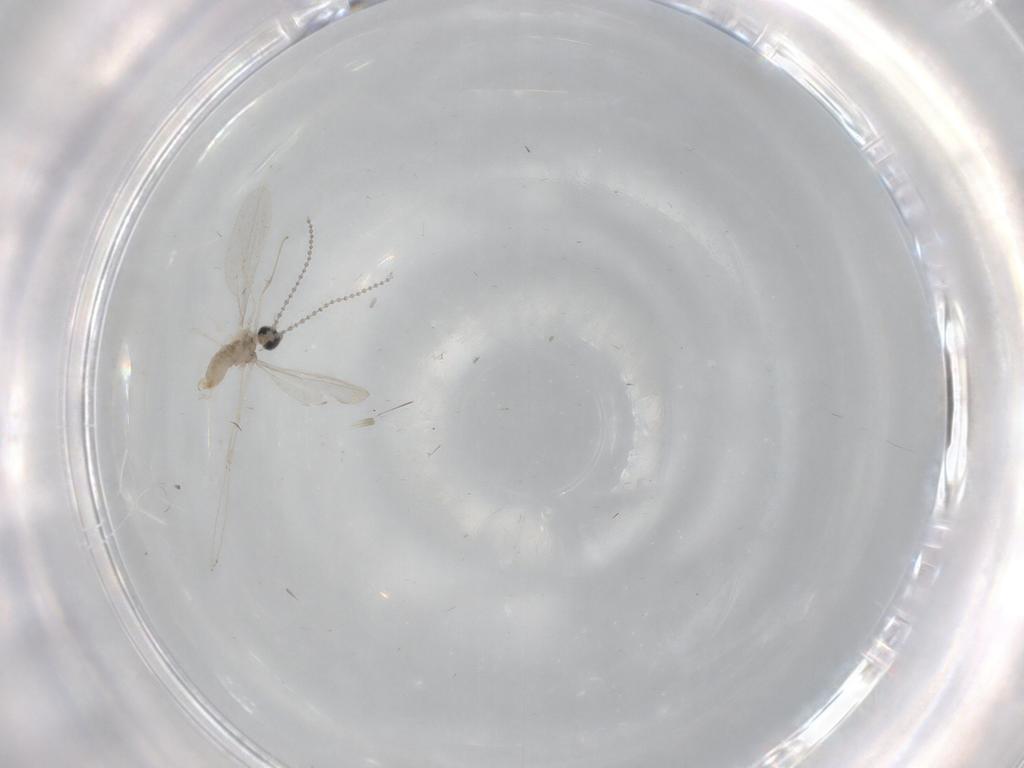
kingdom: Animalia
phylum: Arthropoda
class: Insecta
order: Diptera
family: Cecidomyiidae
